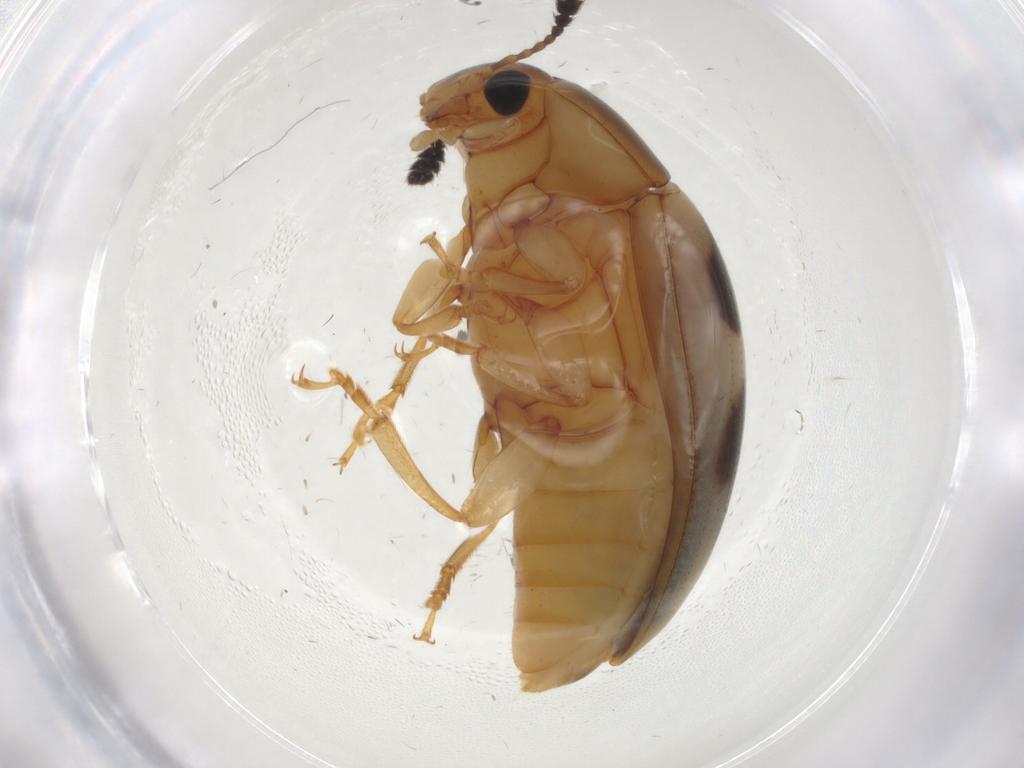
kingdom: Animalia
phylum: Arthropoda
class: Insecta
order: Coleoptera
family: Erotylidae
